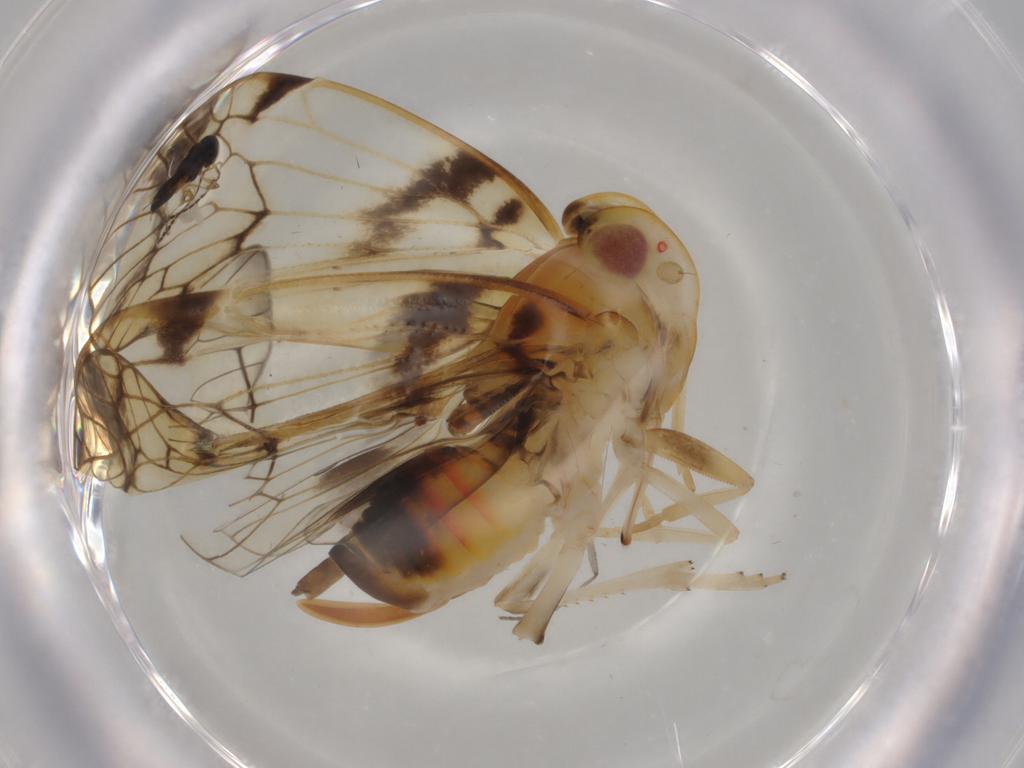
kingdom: Animalia
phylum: Arthropoda
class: Insecta
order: Hemiptera
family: Cixiidae
